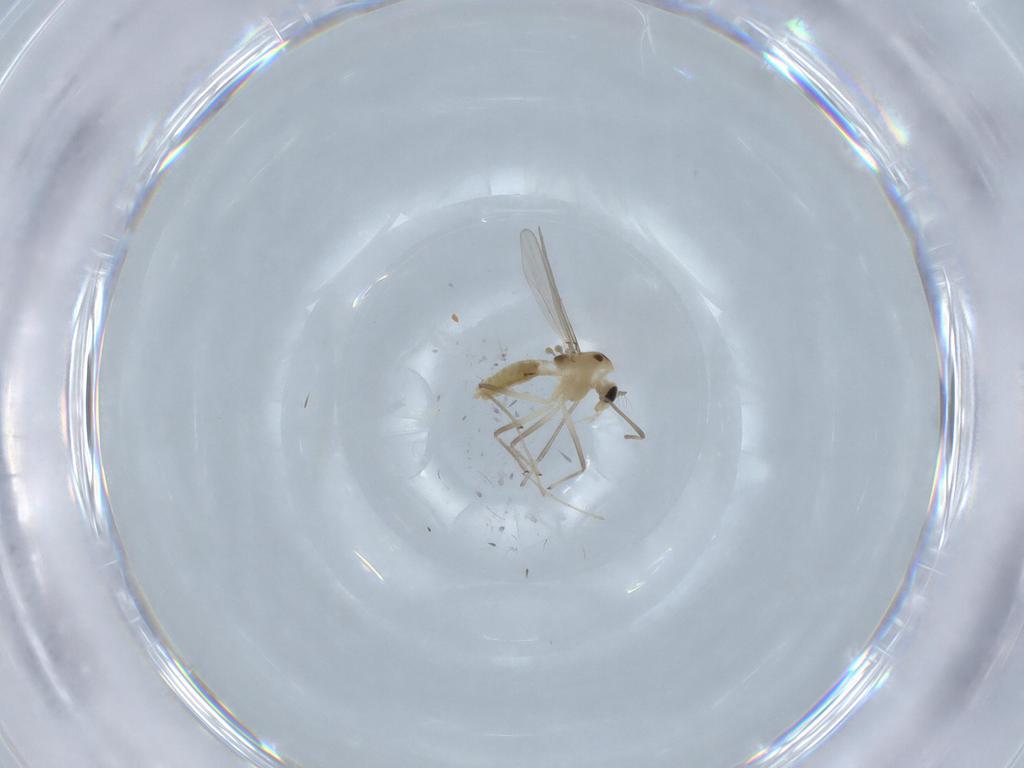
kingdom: Animalia
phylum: Arthropoda
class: Insecta
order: Diptera
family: Chironomidae
